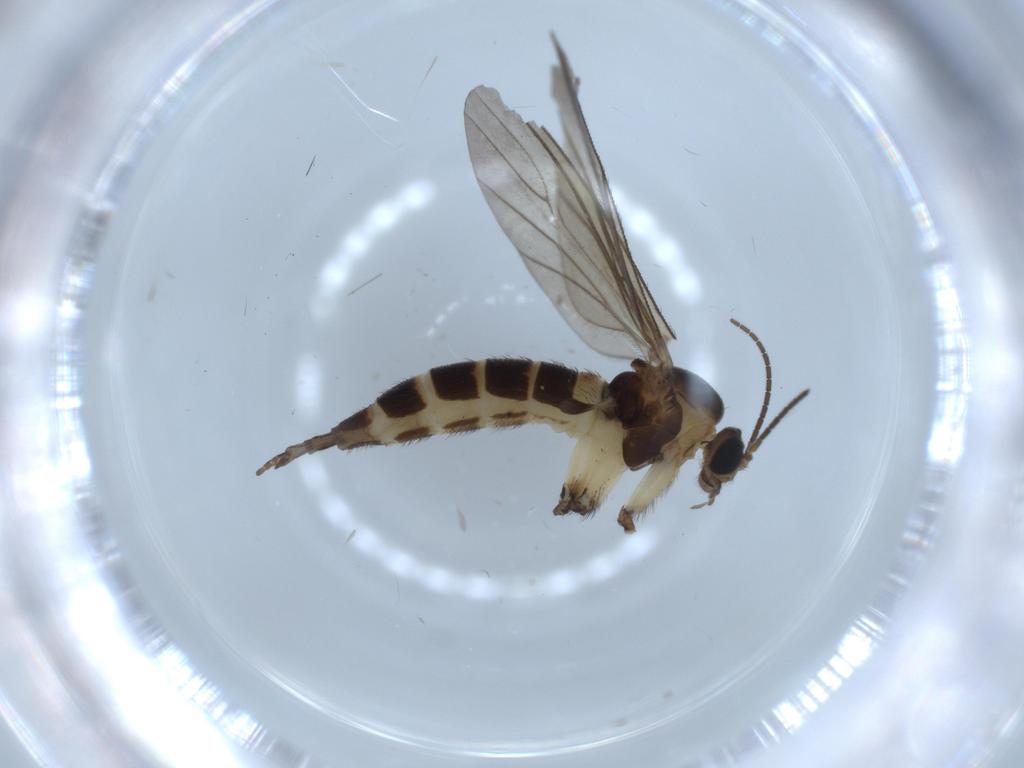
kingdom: Animalia
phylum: Arthropoda
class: Insecta
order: Diptera
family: Sciaridae
